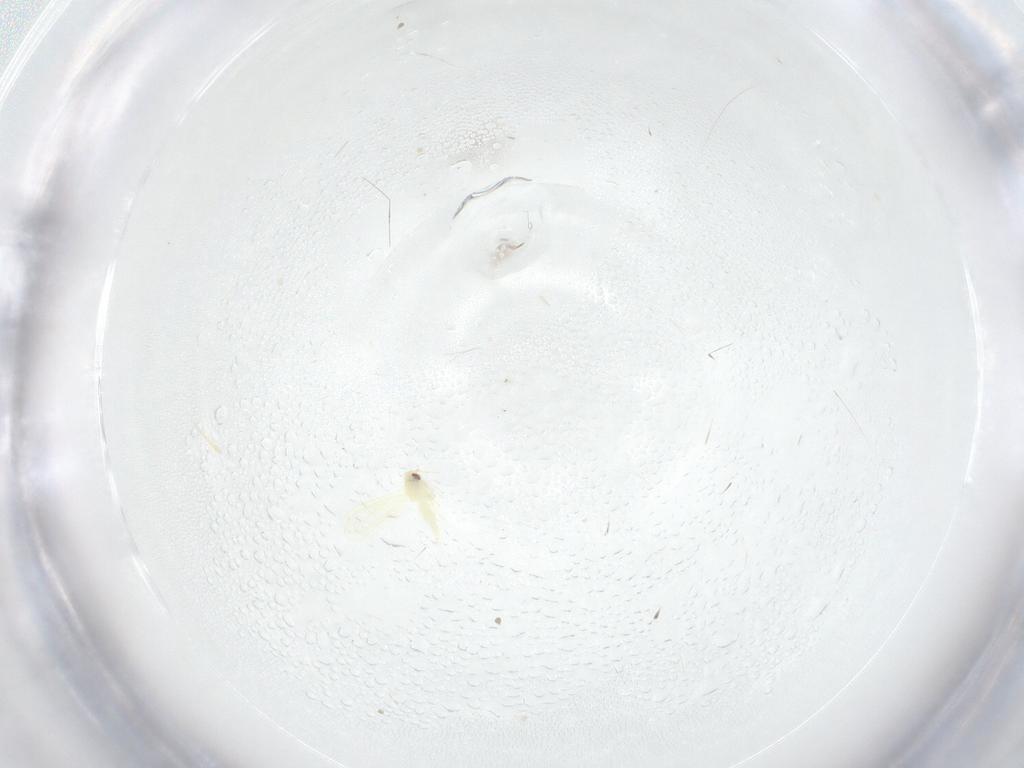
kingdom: Animalia
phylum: Arthropoda
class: Insecta
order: Hemiptera
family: Aleyrodidae
